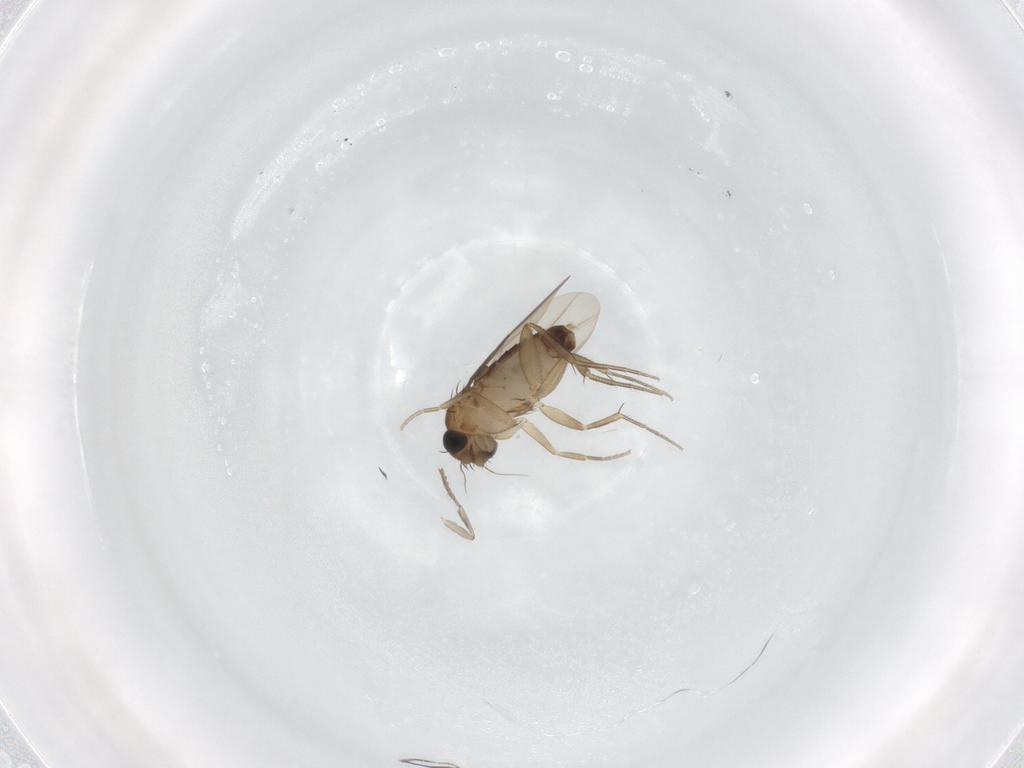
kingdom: Animalia
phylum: Arthropoda
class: Insecta
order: Diptera
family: Phoridae
